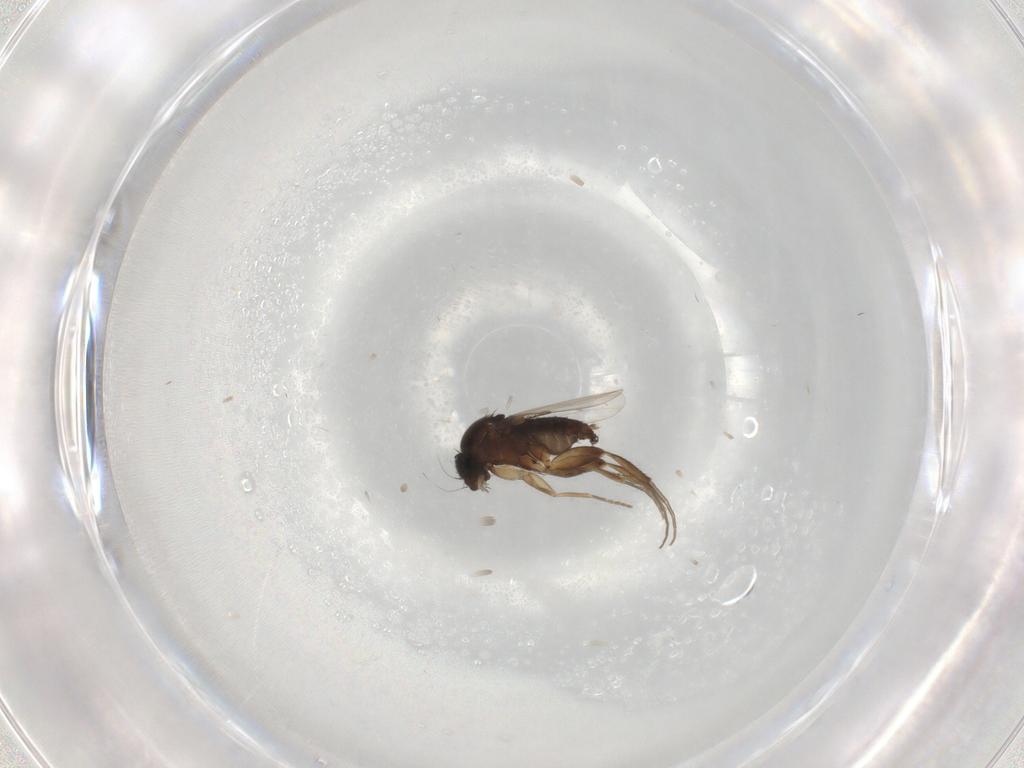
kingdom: Animalia
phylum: Arthropoda
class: Insecta
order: Diptera
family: Phoridae
